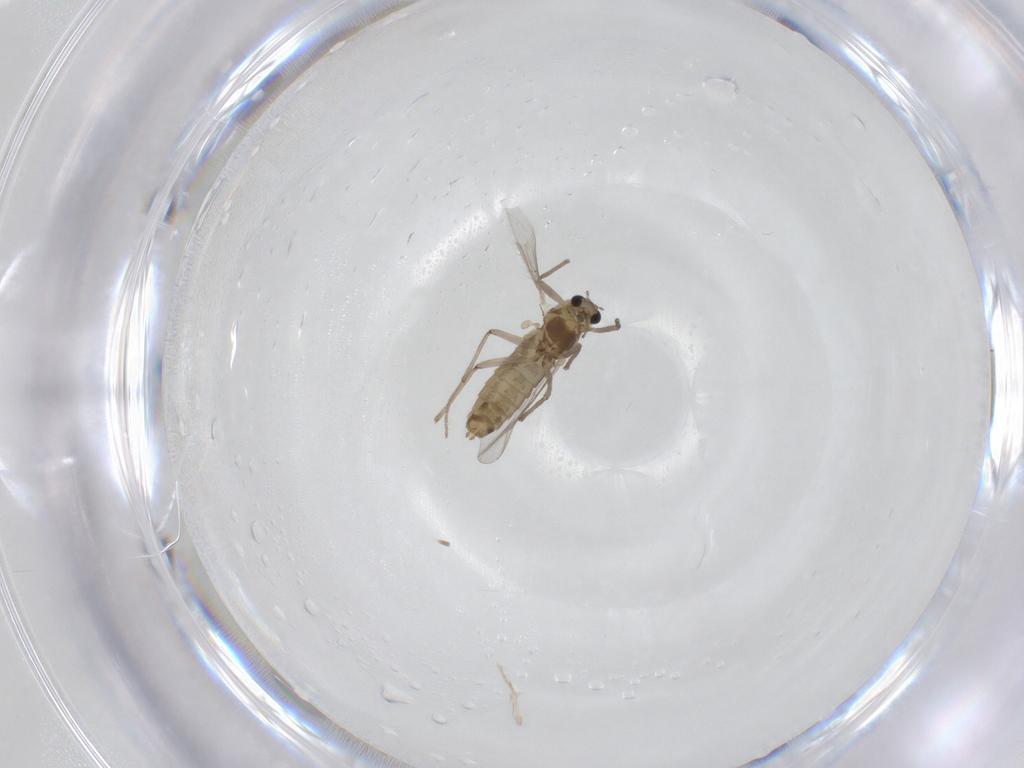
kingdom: Animalia
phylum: Arthropoda
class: Insecta
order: Diptera
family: Chironomidae
